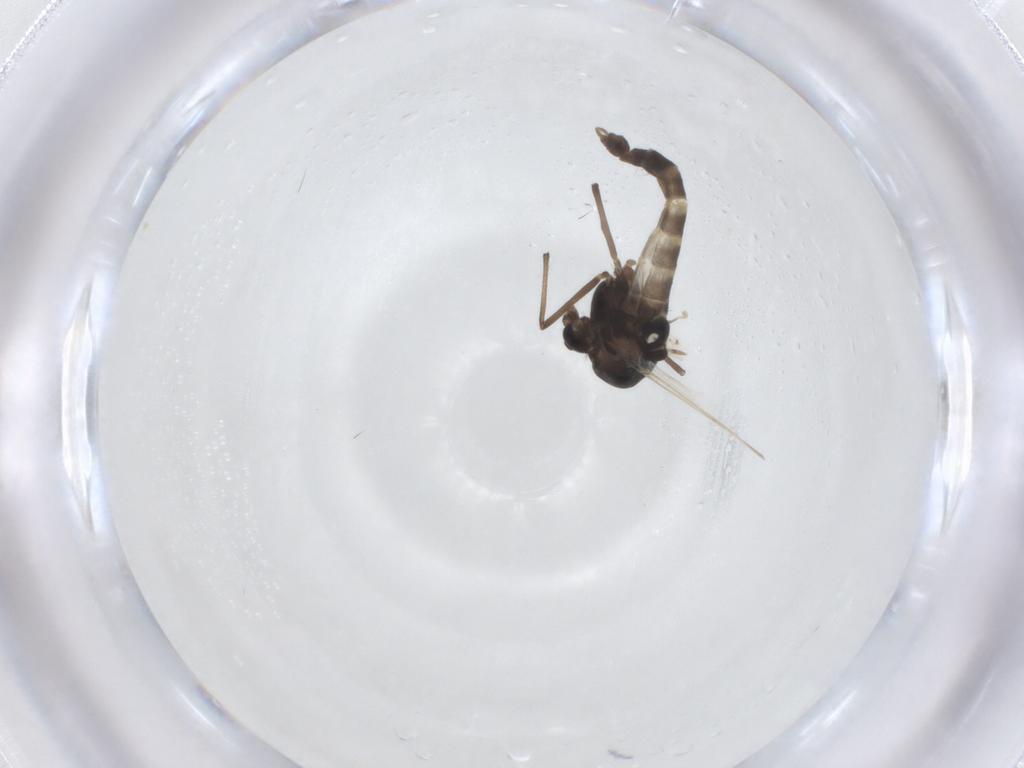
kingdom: Animalia
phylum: Arthropoda
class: Insecta
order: Diptera
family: Chironomidae
